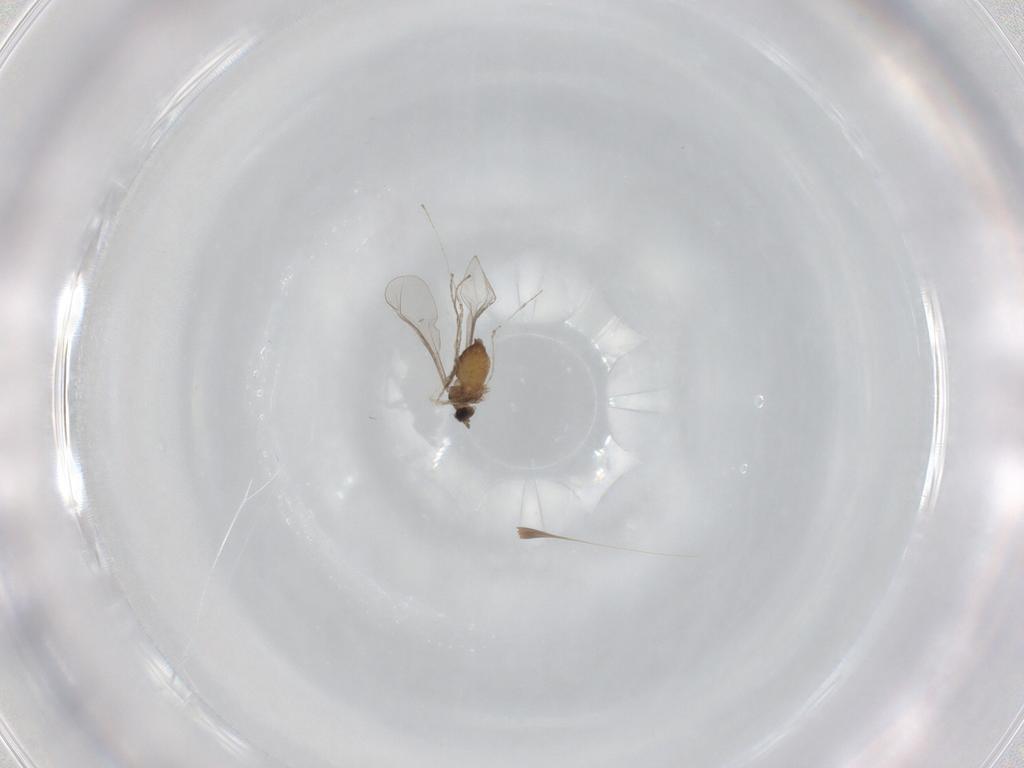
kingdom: Animalia
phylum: Arthropoda
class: Insecta
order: Diptera
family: Cecidomyiidae
